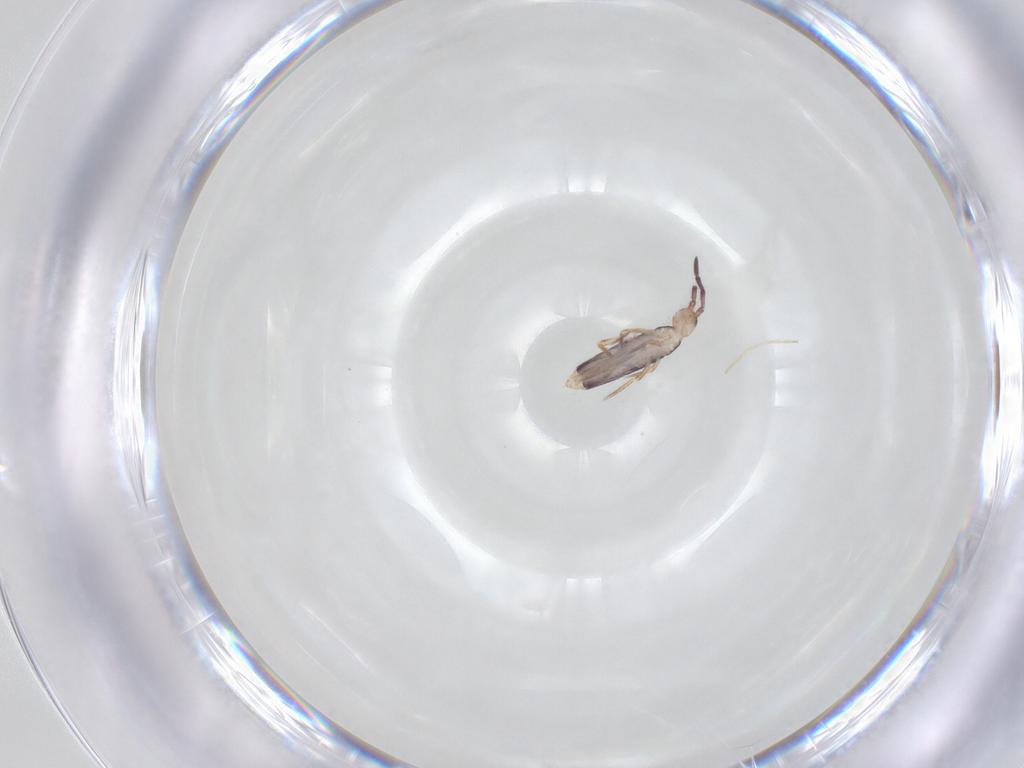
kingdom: Animalia
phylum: Arthropoda
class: Collembola
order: Entomobryomorpha
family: Entomobryidae
